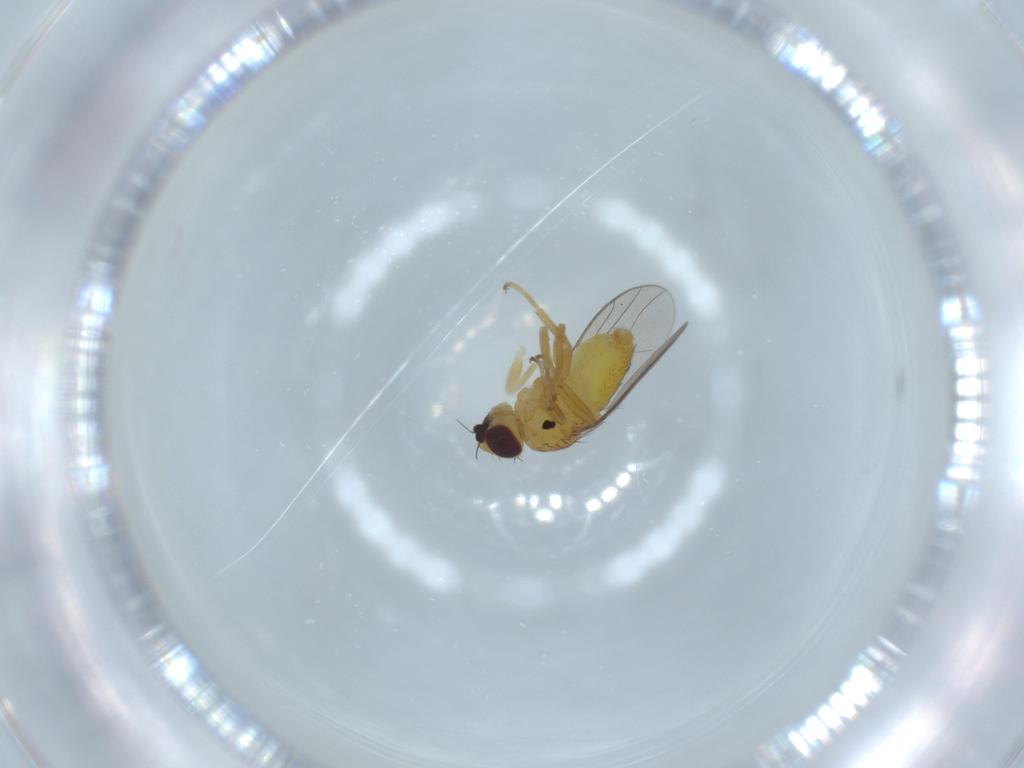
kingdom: Animalia
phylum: Arthropoda
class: Insecta
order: Diptera
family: Chloropidae
